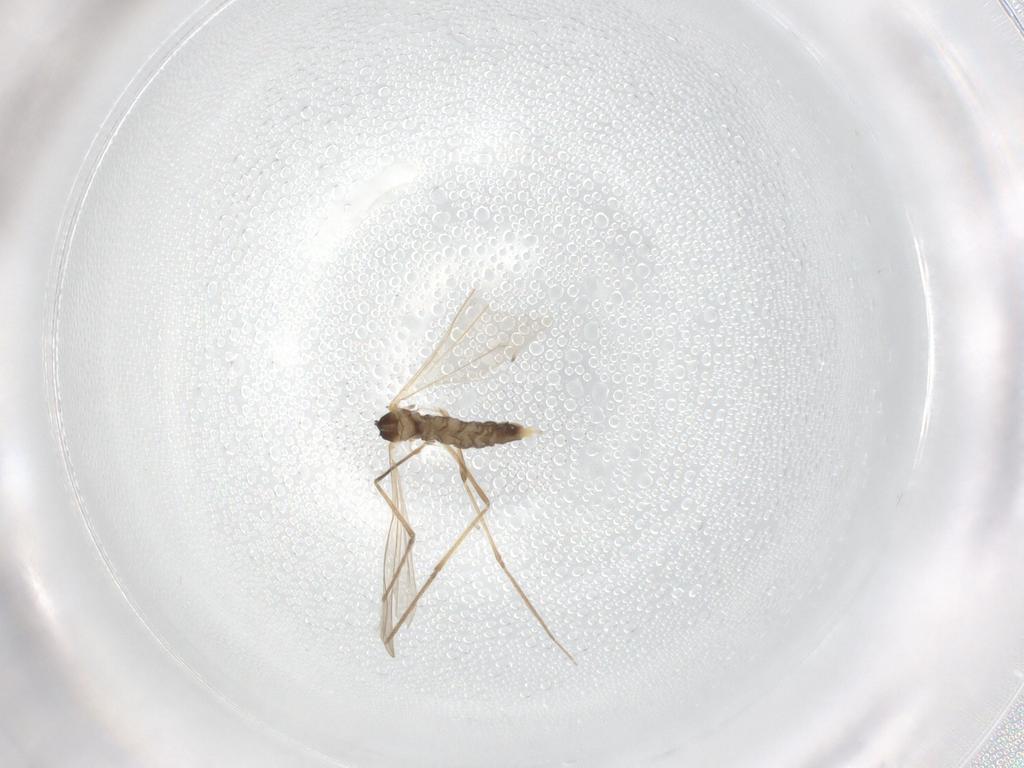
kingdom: Animalia
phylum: Arthropoda
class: Insecta
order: Diptera
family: Cecidomyiidae
